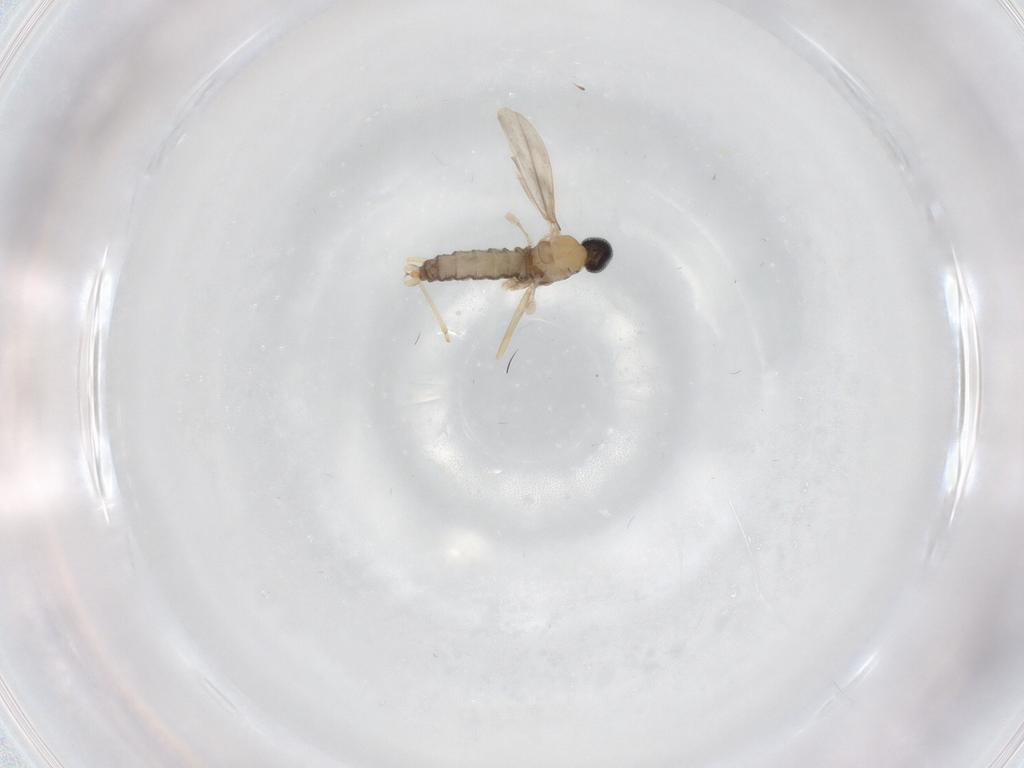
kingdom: Animalia
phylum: Arthropoda
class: Insecta
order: Diptera
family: Cecidomyiidae
